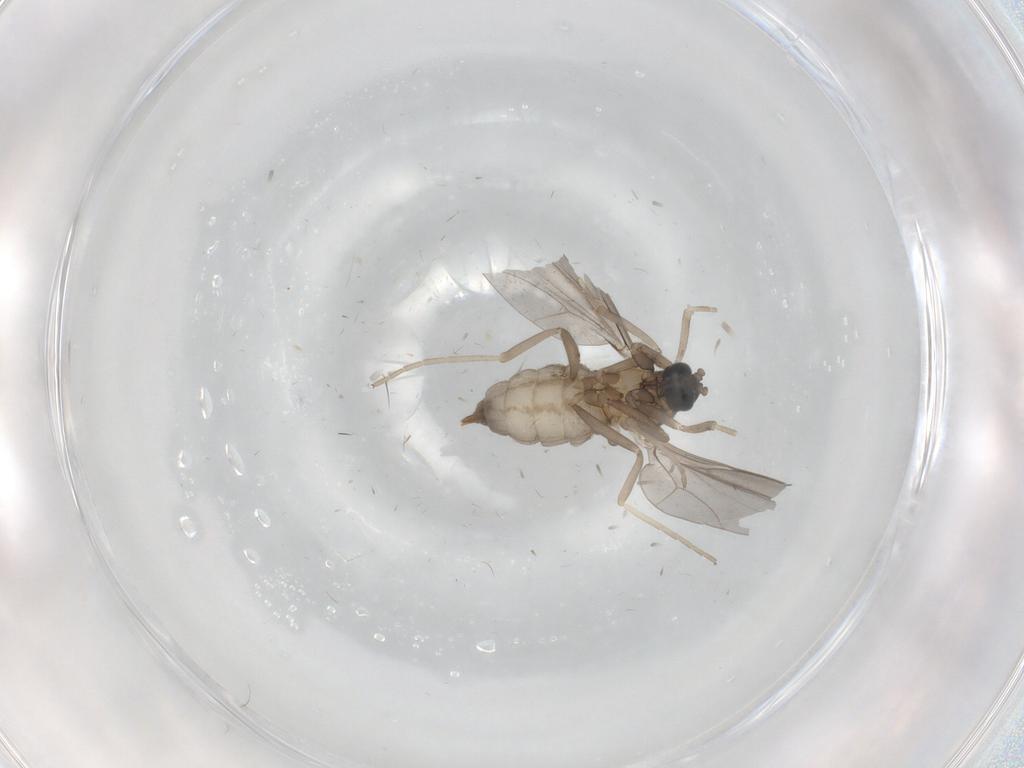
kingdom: Animalia
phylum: Arthropoda
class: Insecta
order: Diptera
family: Cecidomyiidae
